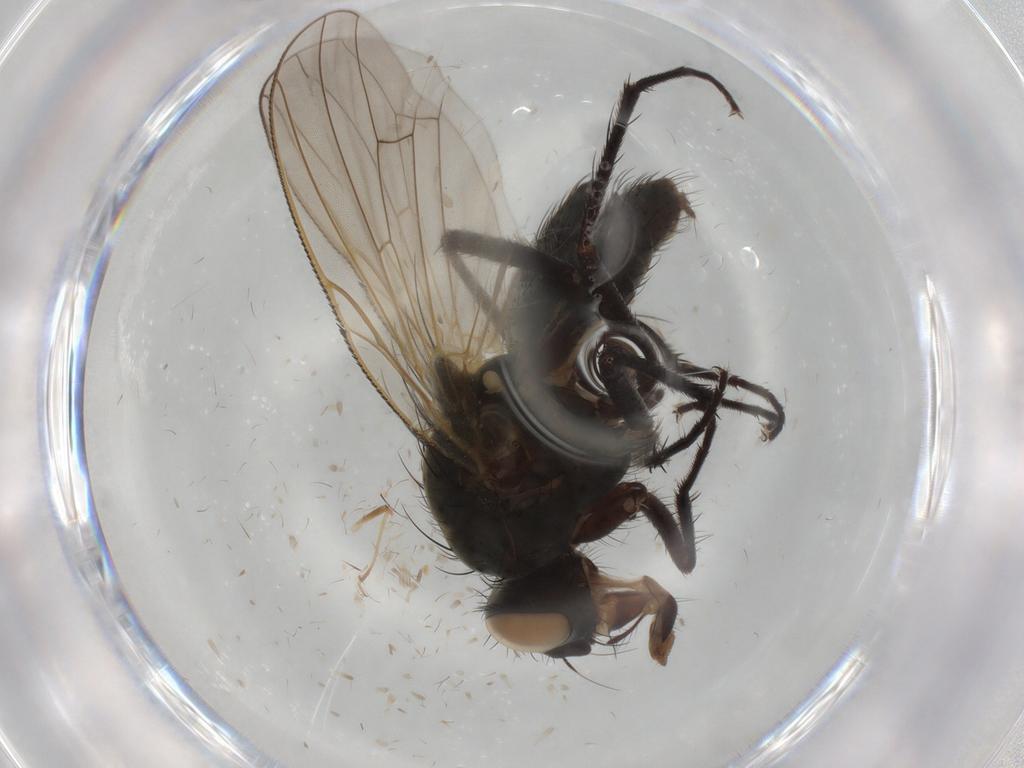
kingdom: Animalia
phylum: Arthropoda
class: Insecta
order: Diptera
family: Anthomyiidae
